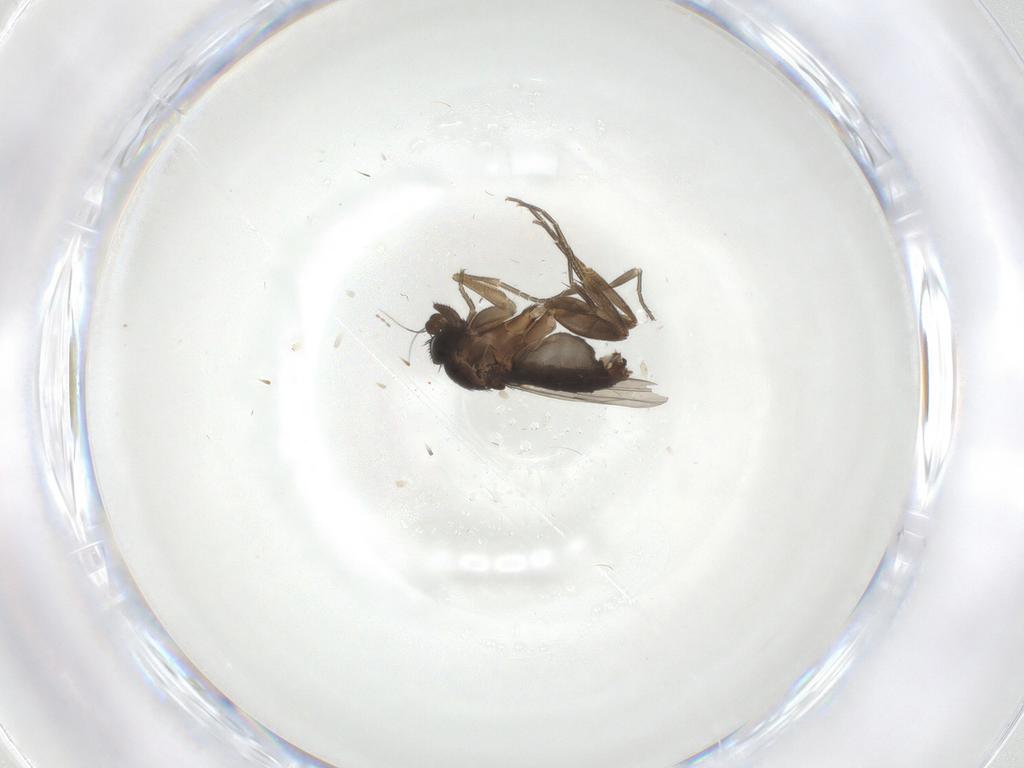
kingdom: Animalia
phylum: Arthropoda
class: Insecta
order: Diptera
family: Phoridae
